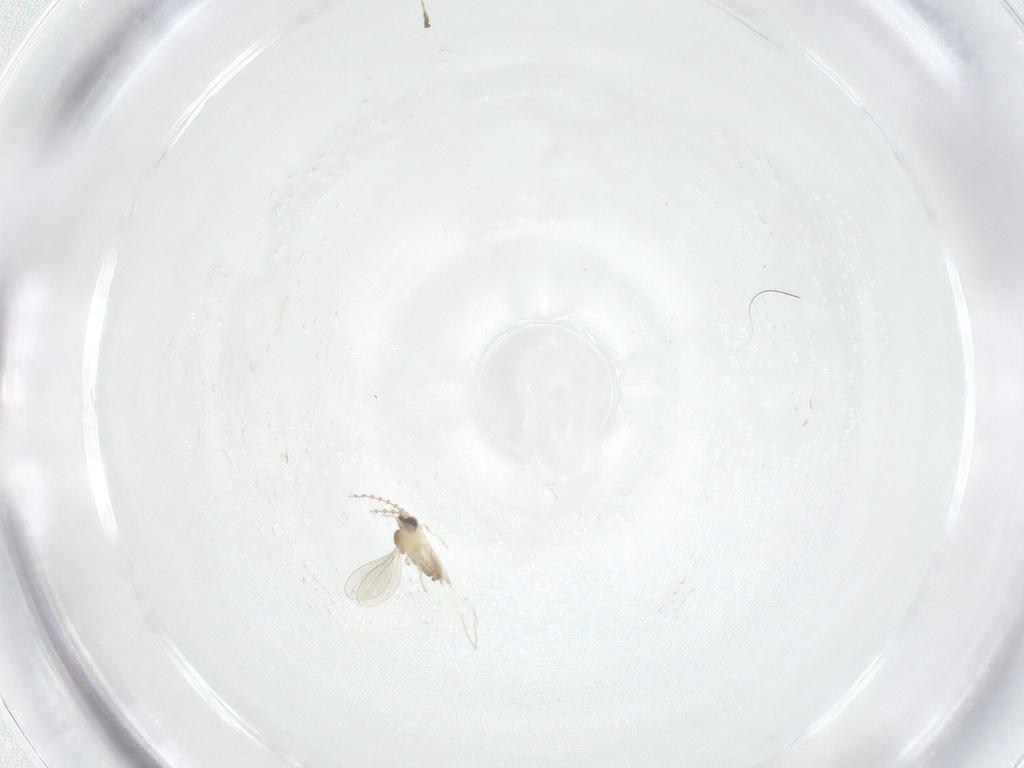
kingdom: Animalia
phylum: Arthropoda
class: Insecta
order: Diptera
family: Cecidomyiidae
